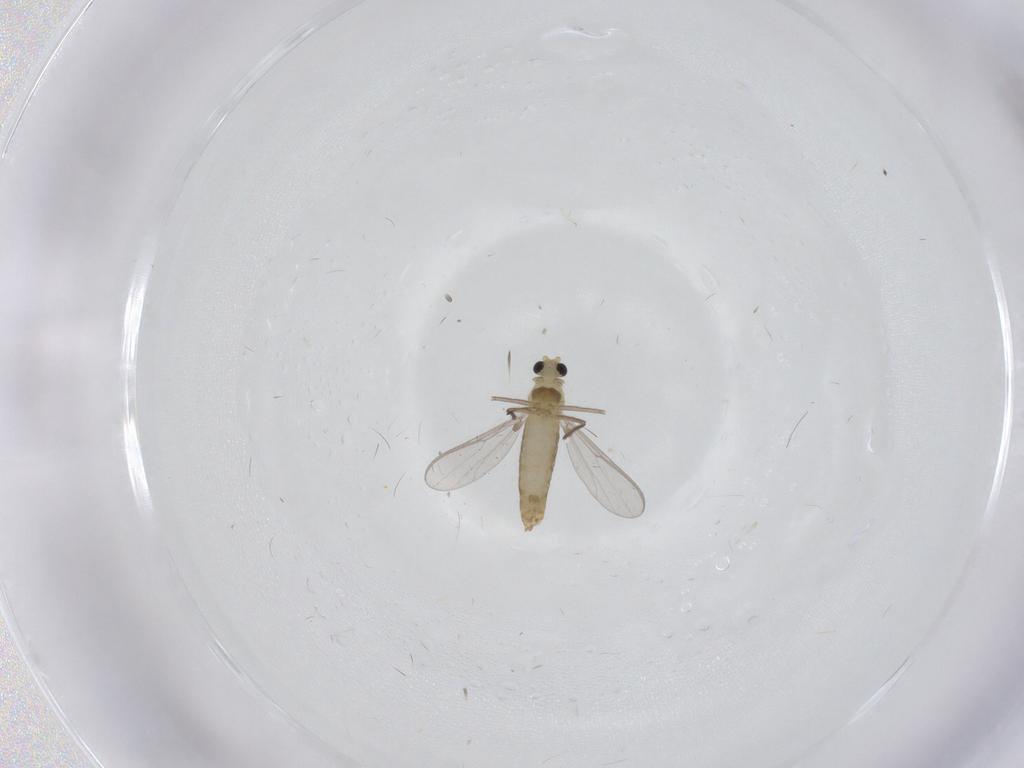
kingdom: Animalia
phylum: Arthropoda
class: Insecta
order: Diptera
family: Chironomidae
